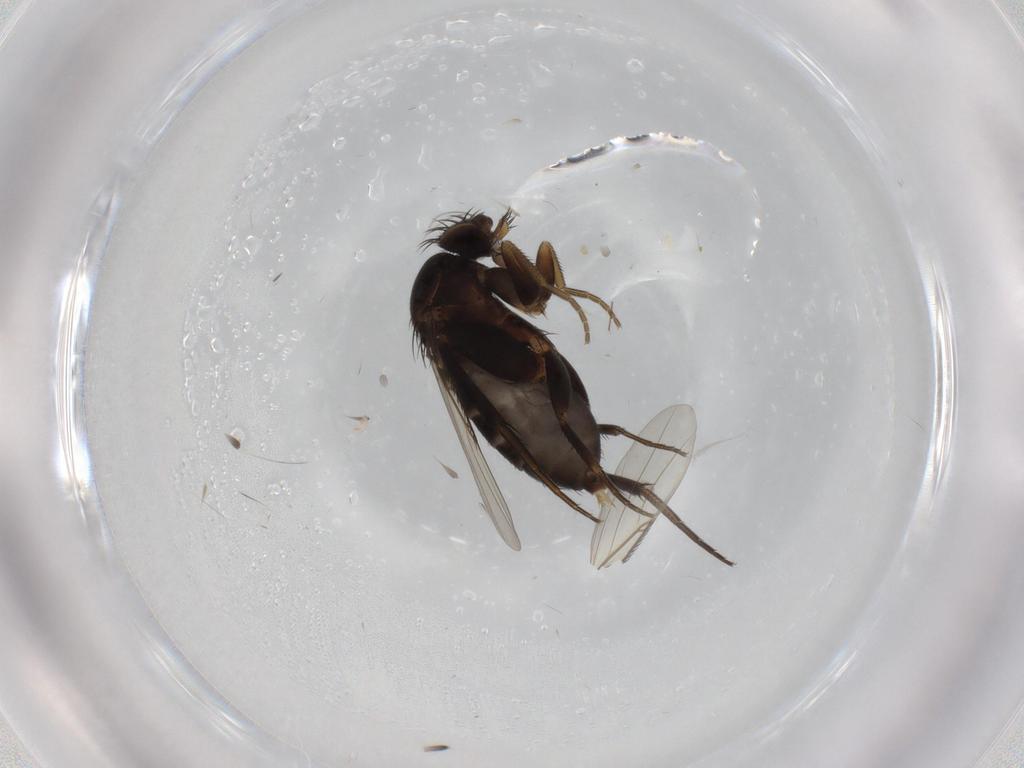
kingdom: Animalia
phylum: Arthropoda
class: Insecta
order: Diptera
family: Phoridae
